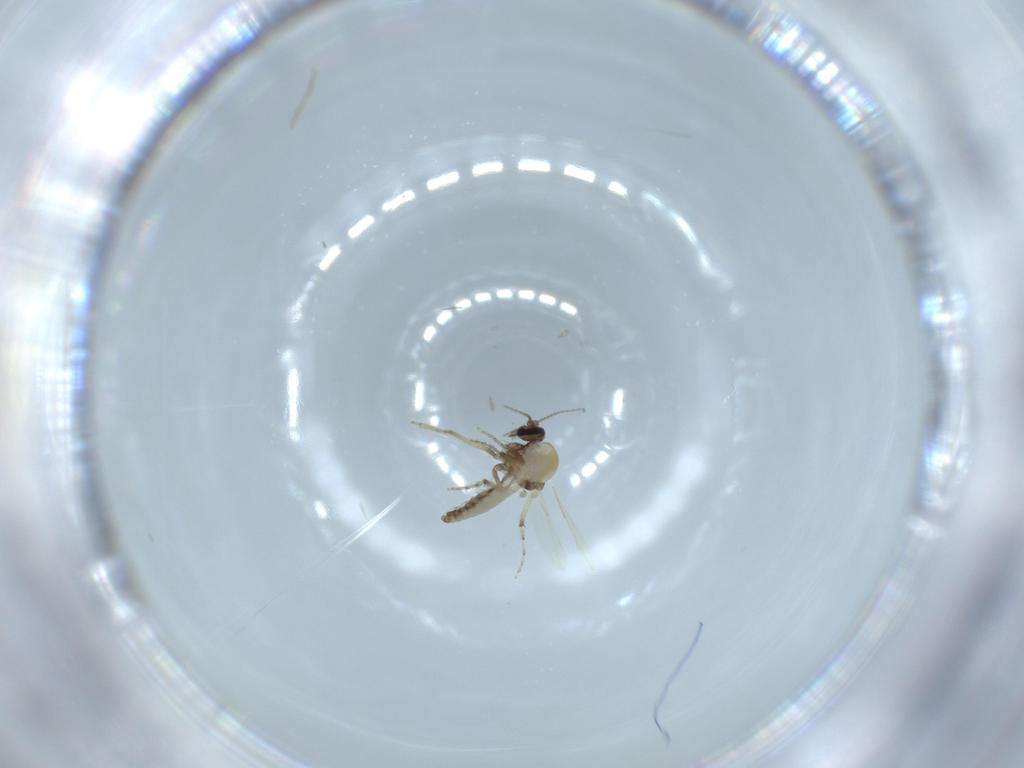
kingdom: Animalia
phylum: Arthropoda
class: Insecta
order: Diptera
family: Ceratopogonidae
